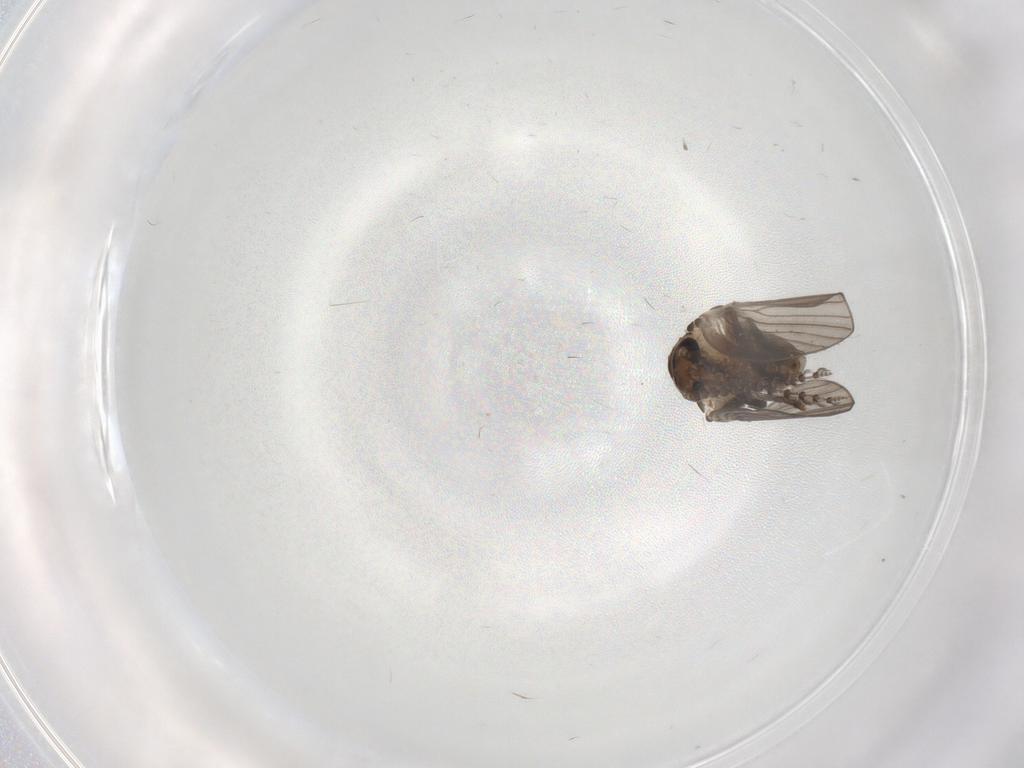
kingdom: Animalia
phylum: Arthropoda
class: Insecta
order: Diptera
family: Psychodidae
